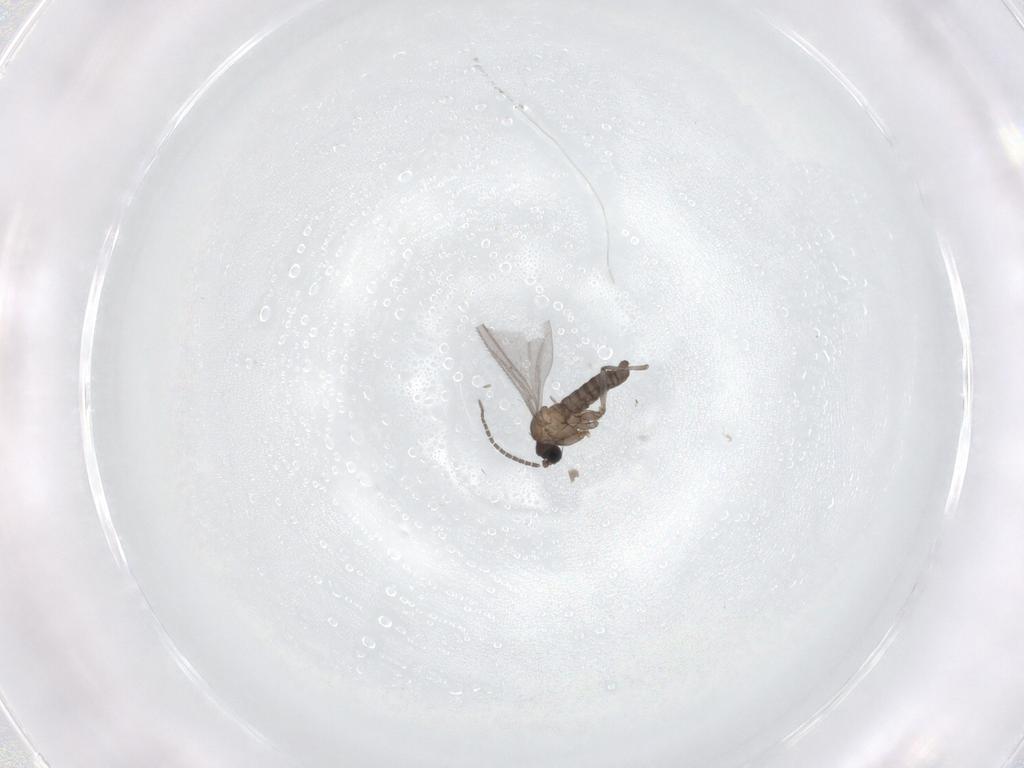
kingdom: Animalia
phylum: Arthropoda
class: Insecta
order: Diptera
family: Sciaridae
